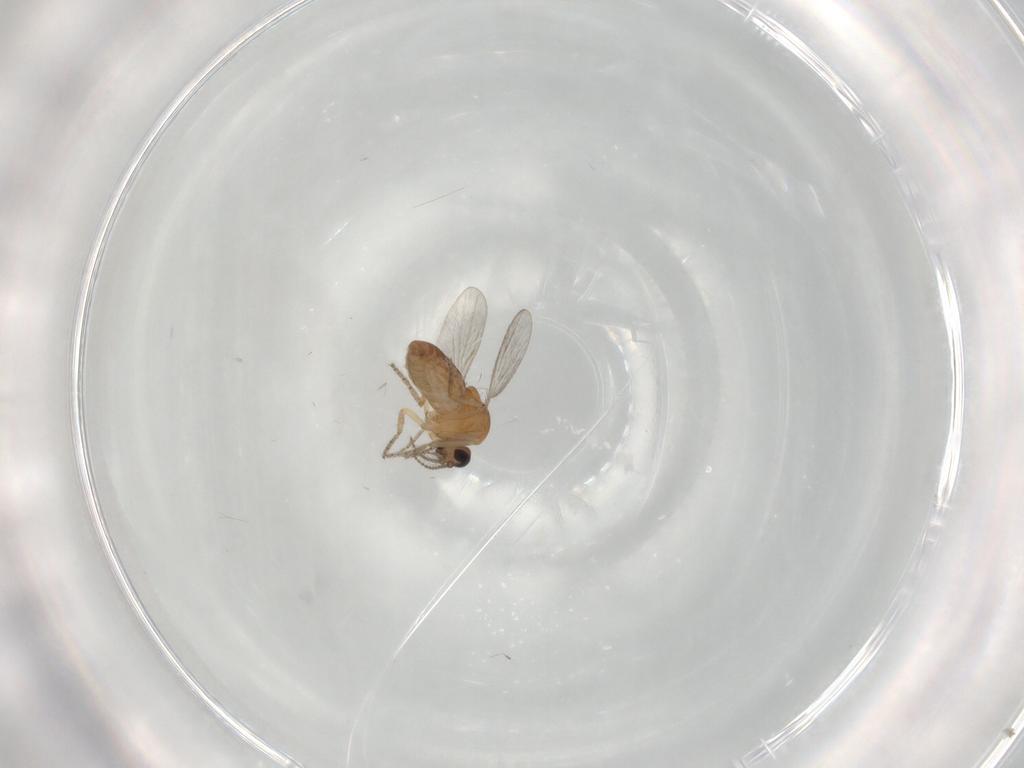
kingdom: Animalia
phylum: Arthropoda
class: Insecta
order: Diptera
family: Ceratopogonidae
